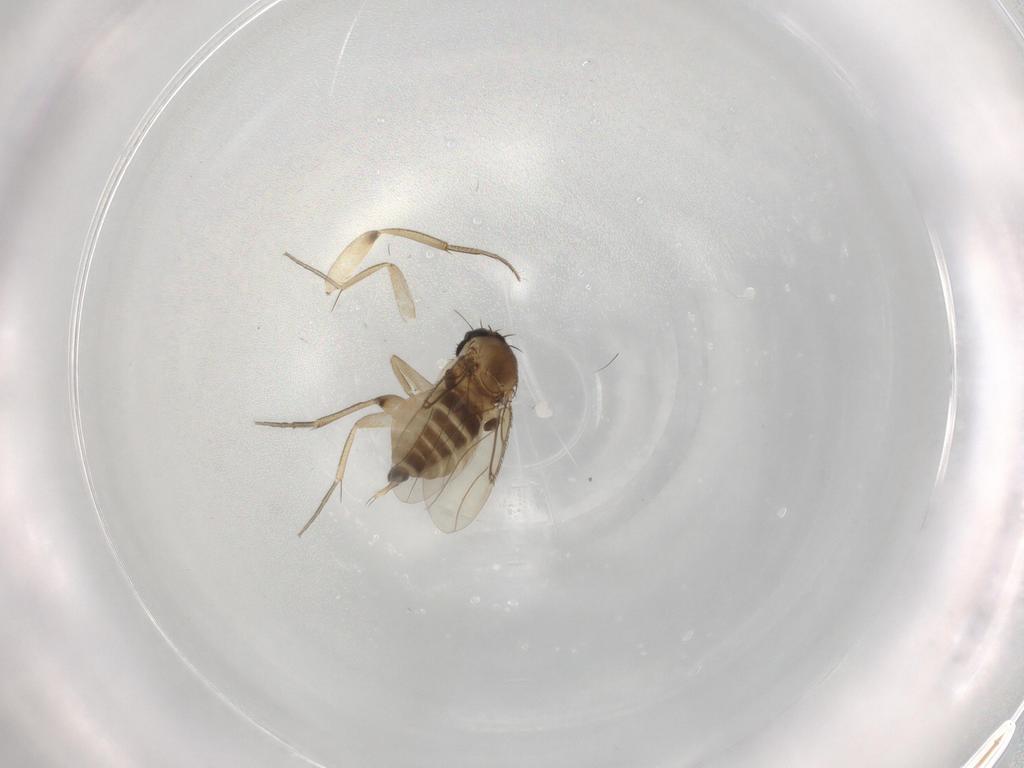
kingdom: Animalia
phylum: Arthropoda
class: Insecta
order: Diptera
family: Phoridae
